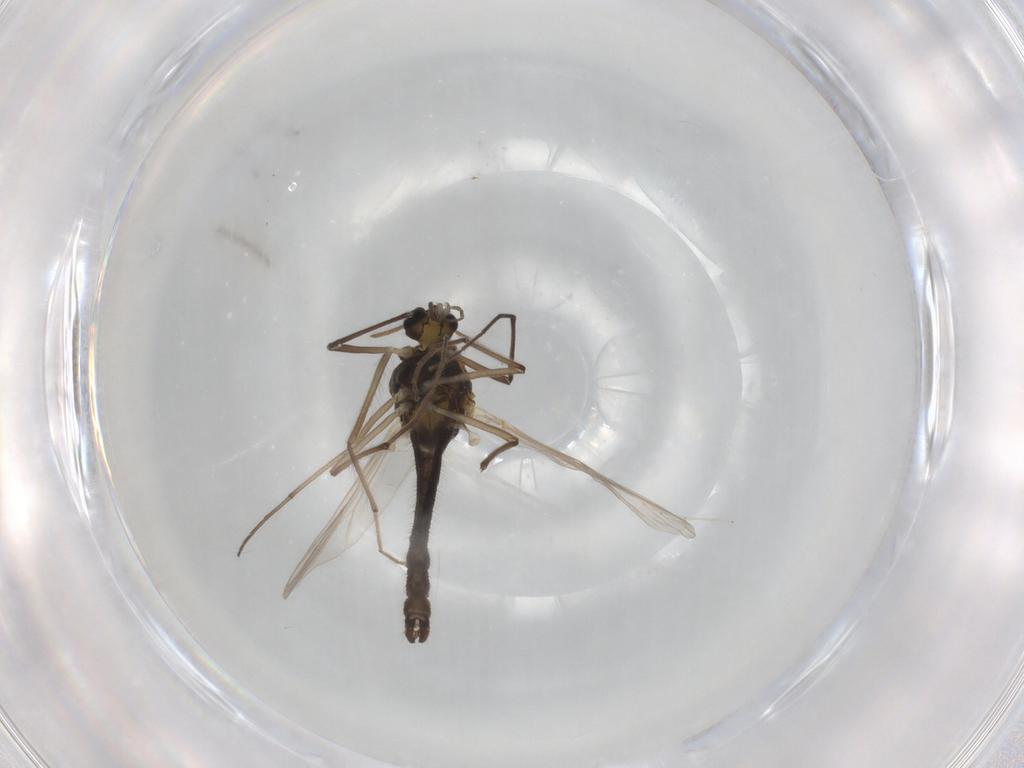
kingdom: Animalia
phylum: Arthropoda
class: Insecta
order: Diptera
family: Chironomidae
